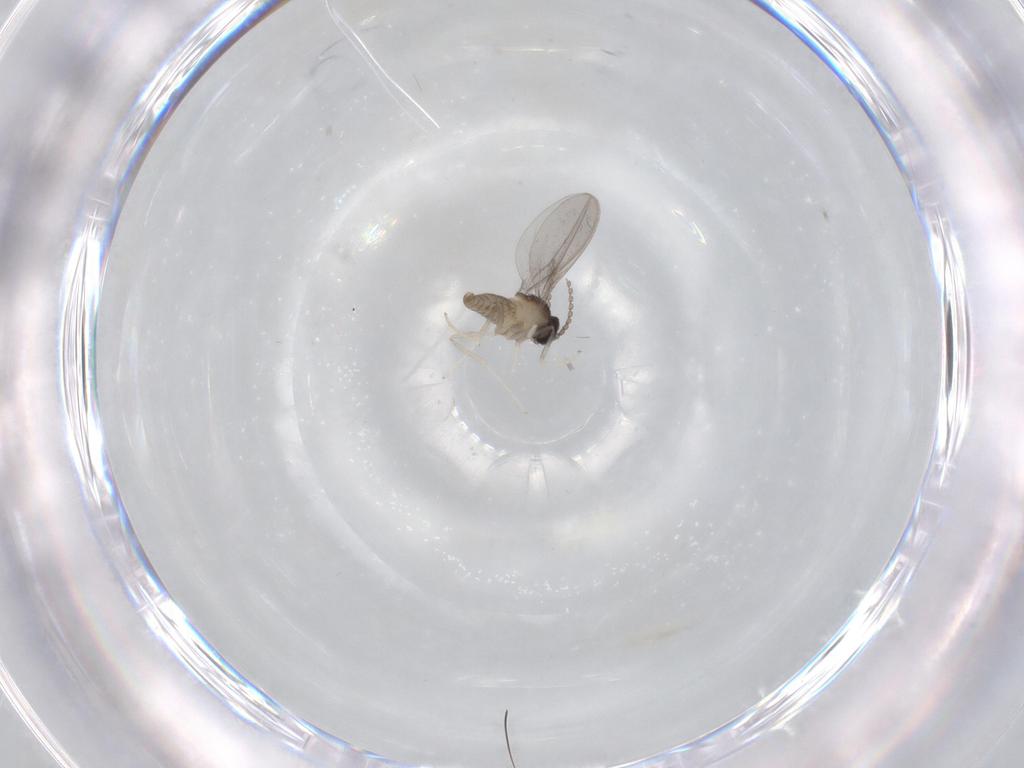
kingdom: Animalia
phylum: Arthropoda
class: Insecta
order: Diptera
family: Cecidomyiidae
